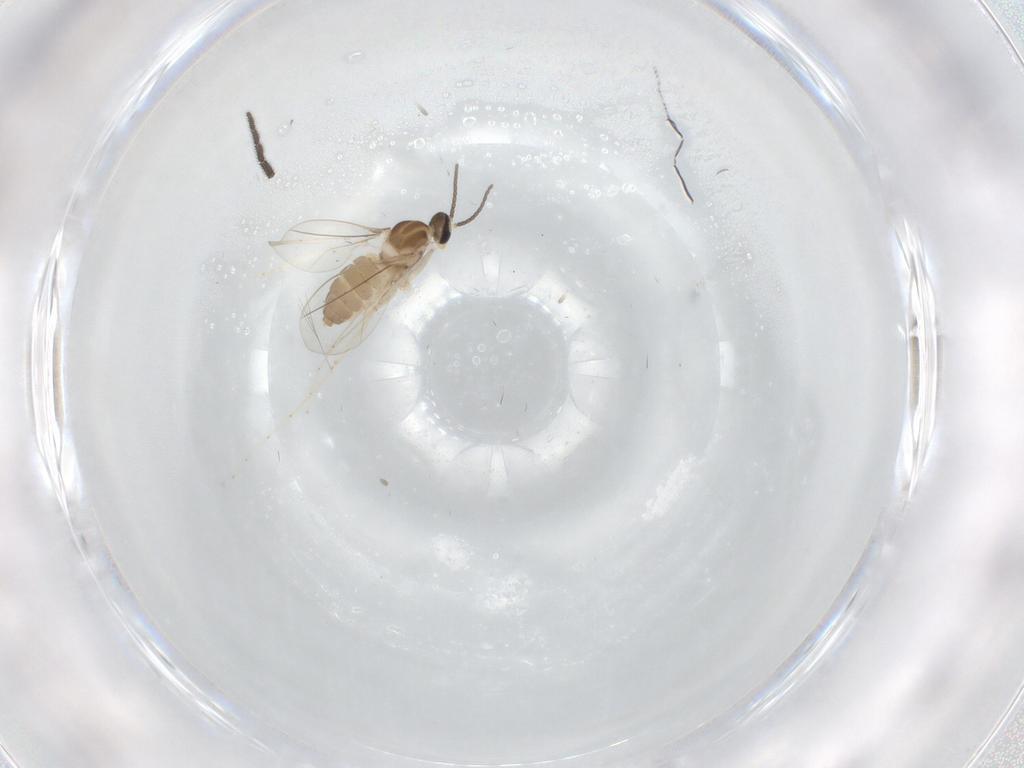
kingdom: Animalia
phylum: Arthropoda
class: Insecta
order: Diptera
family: Cecidomyiidae
